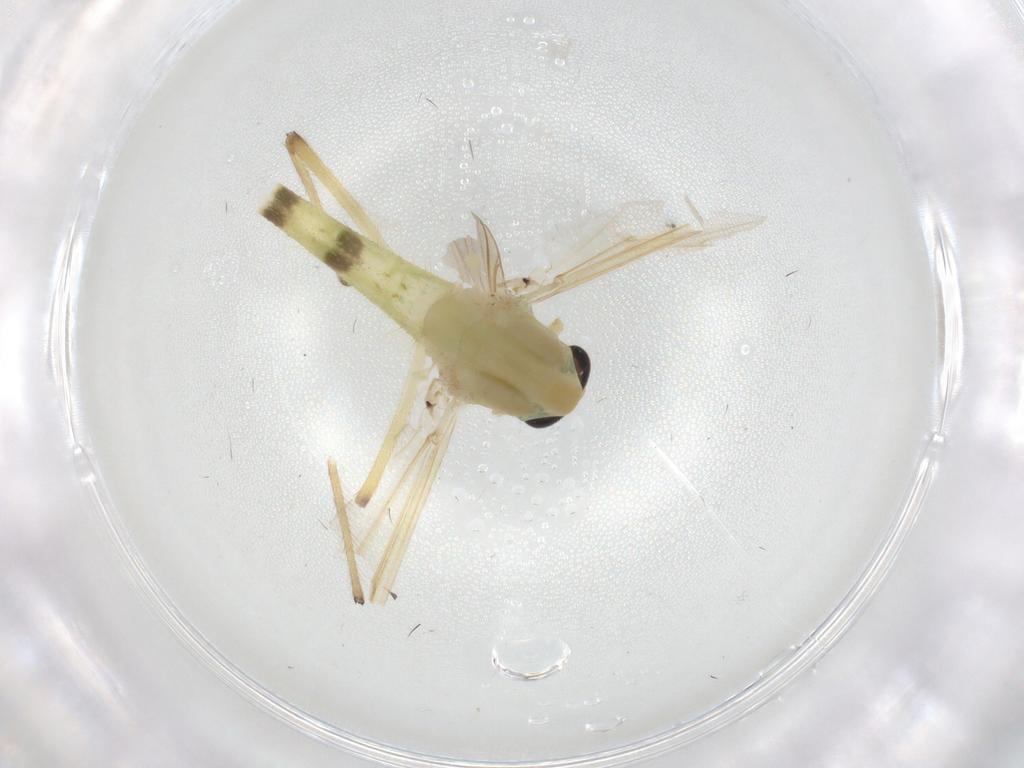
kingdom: Animalia
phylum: Arthropoda
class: Insecta
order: Diptera
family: Sciaridae
